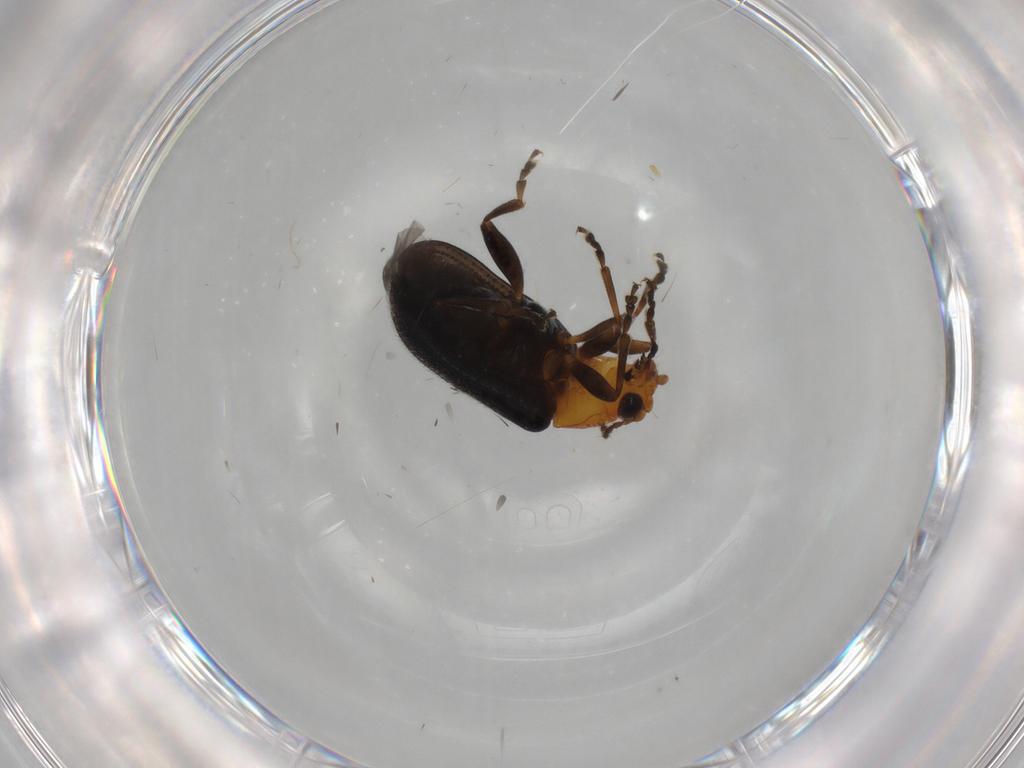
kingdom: Animalia
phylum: Arthropoda
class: Insecta
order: Coleoptera
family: Chrysomelidae
